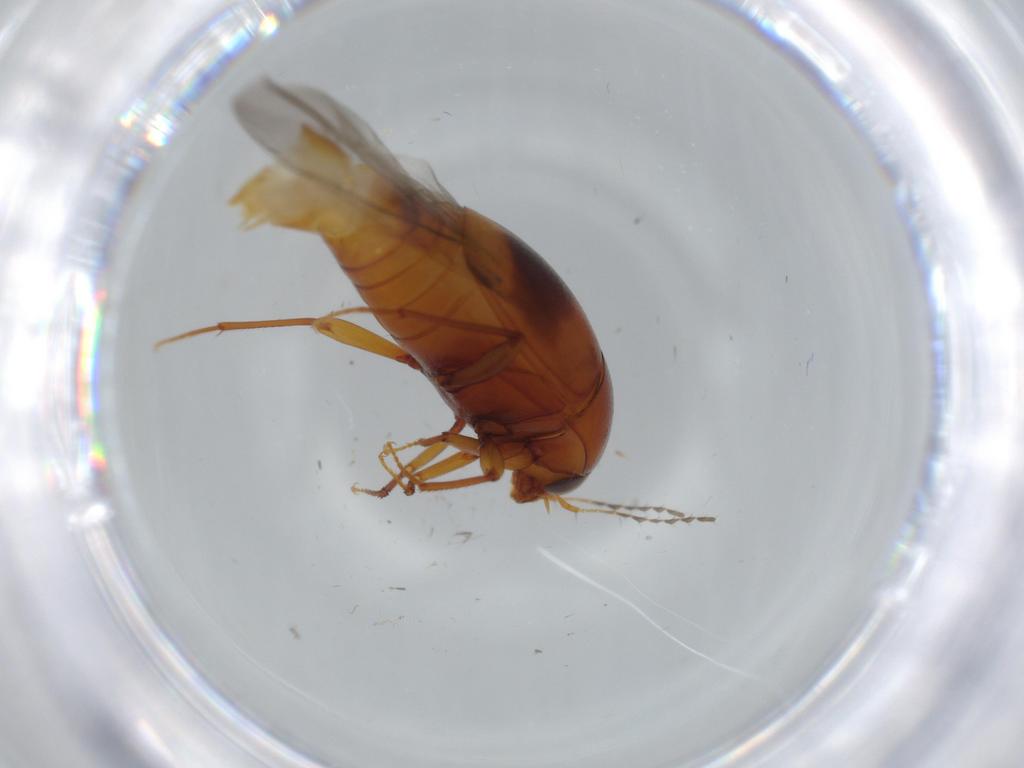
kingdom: Animalia
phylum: Arthropoda
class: Insecta
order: Coleoptera
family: Staphylinidae
